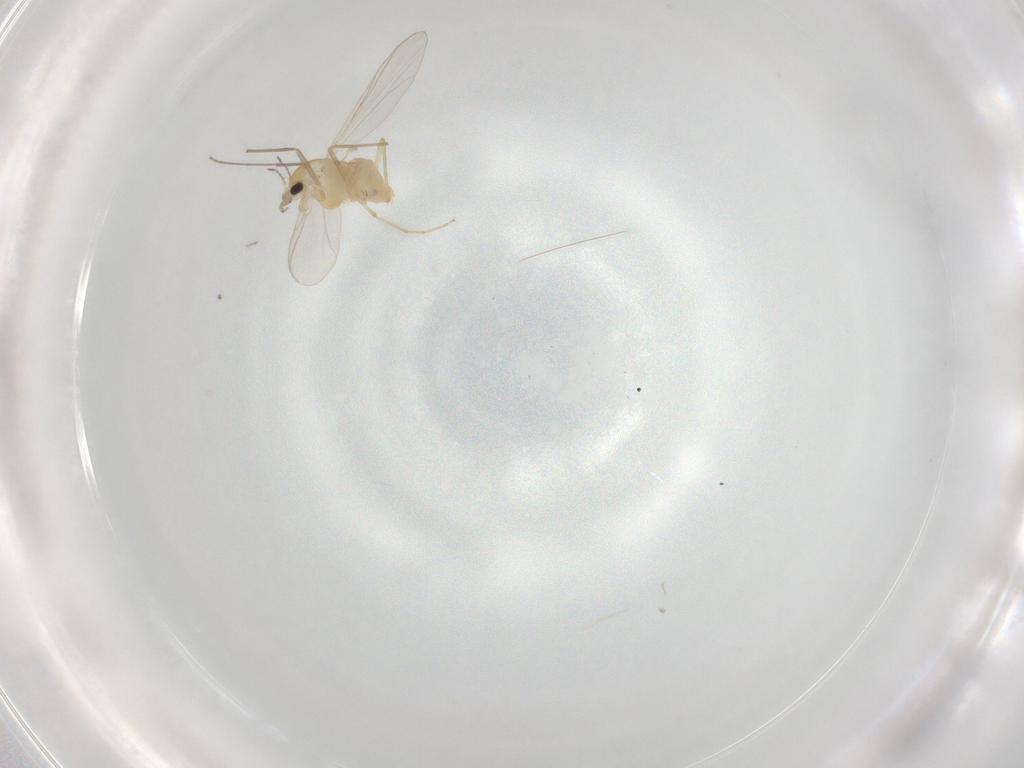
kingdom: Animalia
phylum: Arthropoda
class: Insecta
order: Diptera
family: Chironomidae
